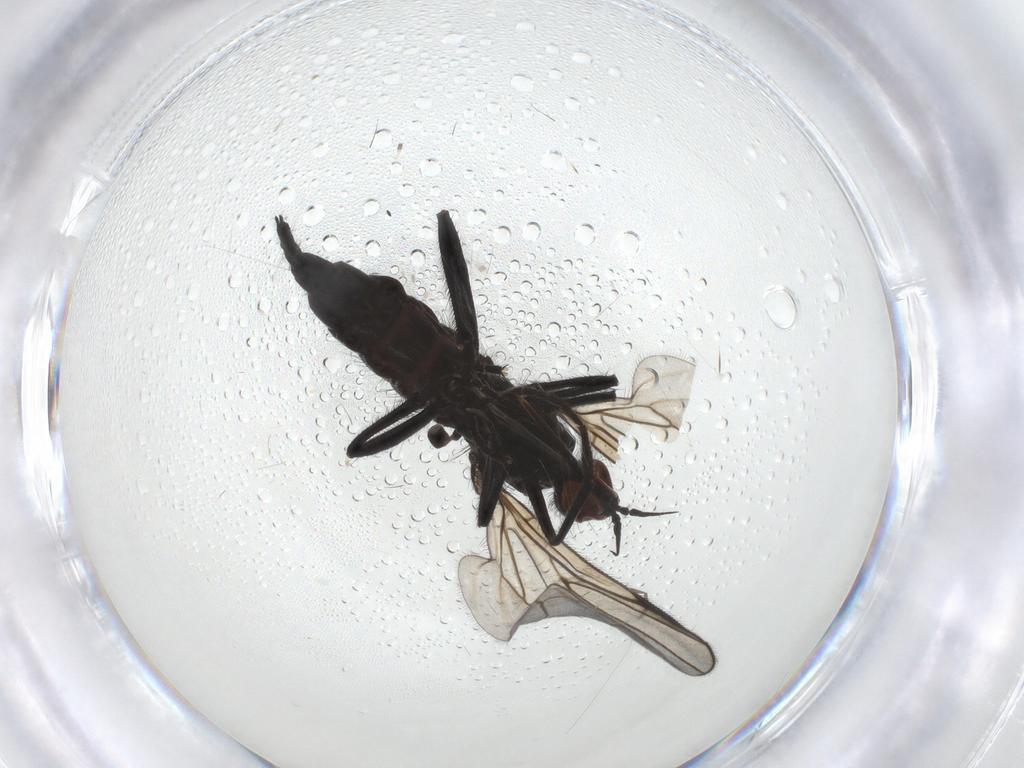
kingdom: Animalia
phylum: Arthropoda
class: Insecta
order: Diptera
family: Empididae
